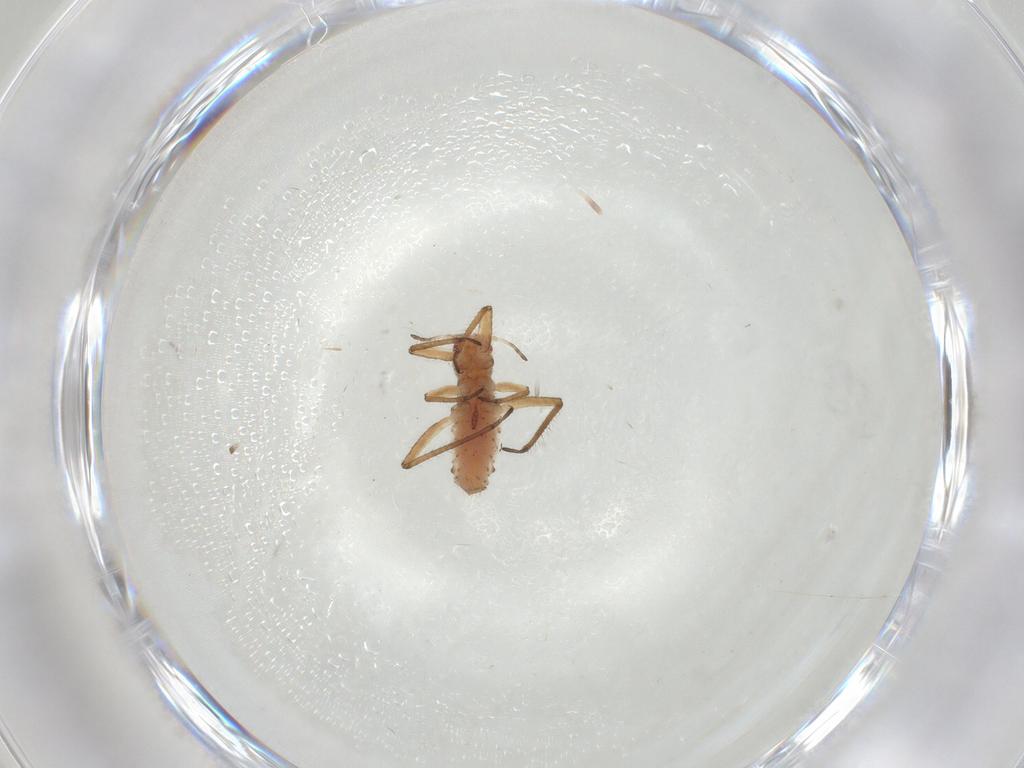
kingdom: Animalia
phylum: Arthropoda
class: Insecta
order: Hemiptera
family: Aphididae
